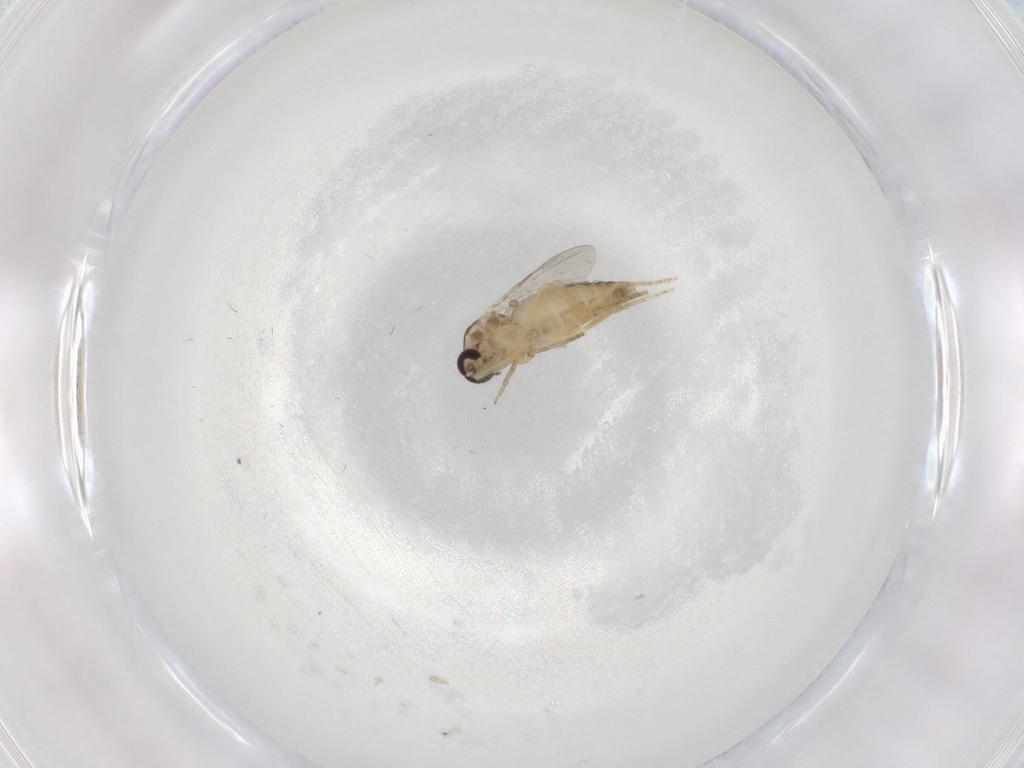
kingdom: Animalia
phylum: Arthropoda
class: Insecta
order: Diptera
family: Ceratopogonidae
